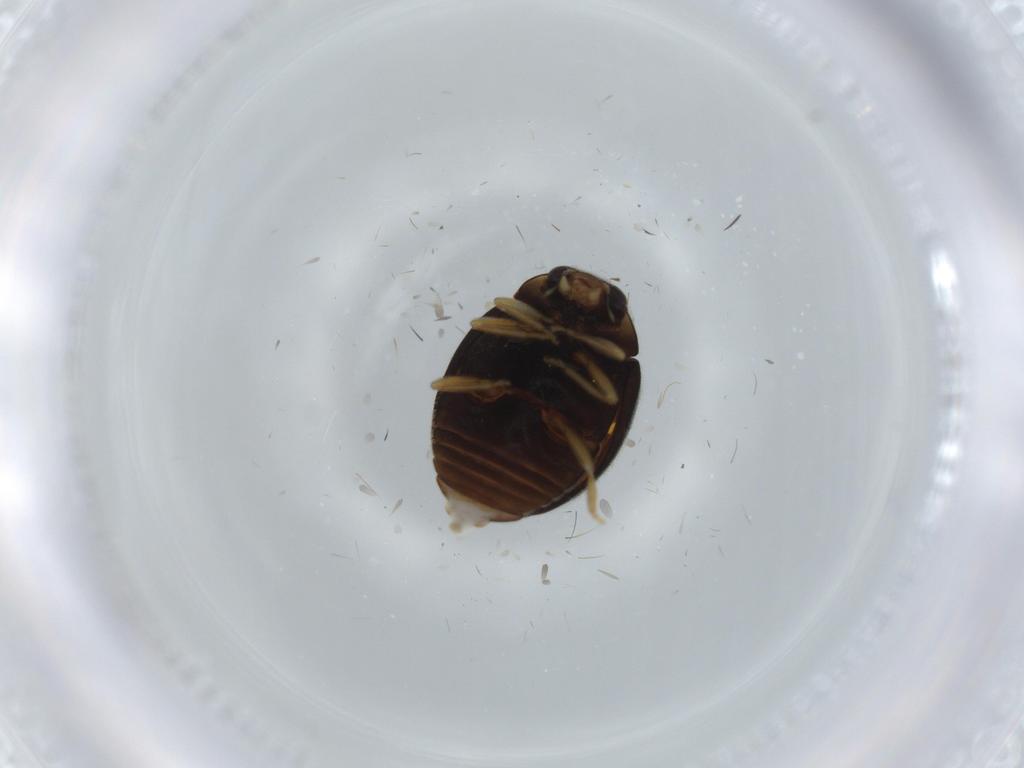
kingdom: Animalia
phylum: Arthropoda
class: Insecta
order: Coleoptera
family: Coccinellidae
